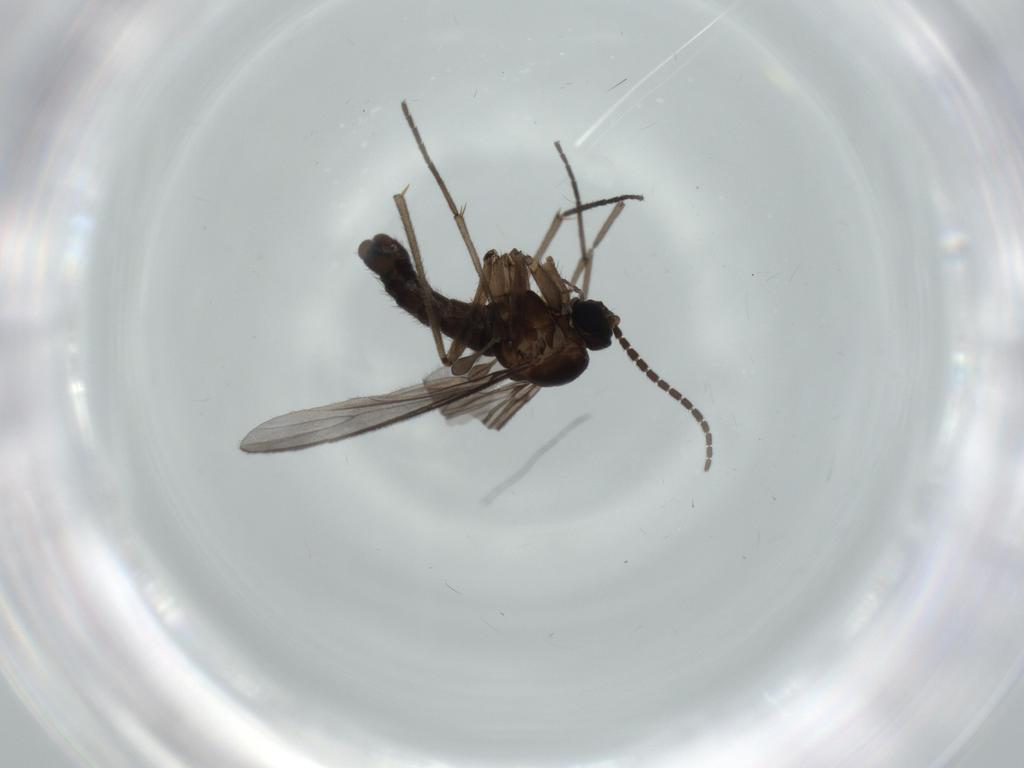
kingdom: Animalia
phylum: Arthropoda
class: Insecta
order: Diptera
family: Sciaridae
